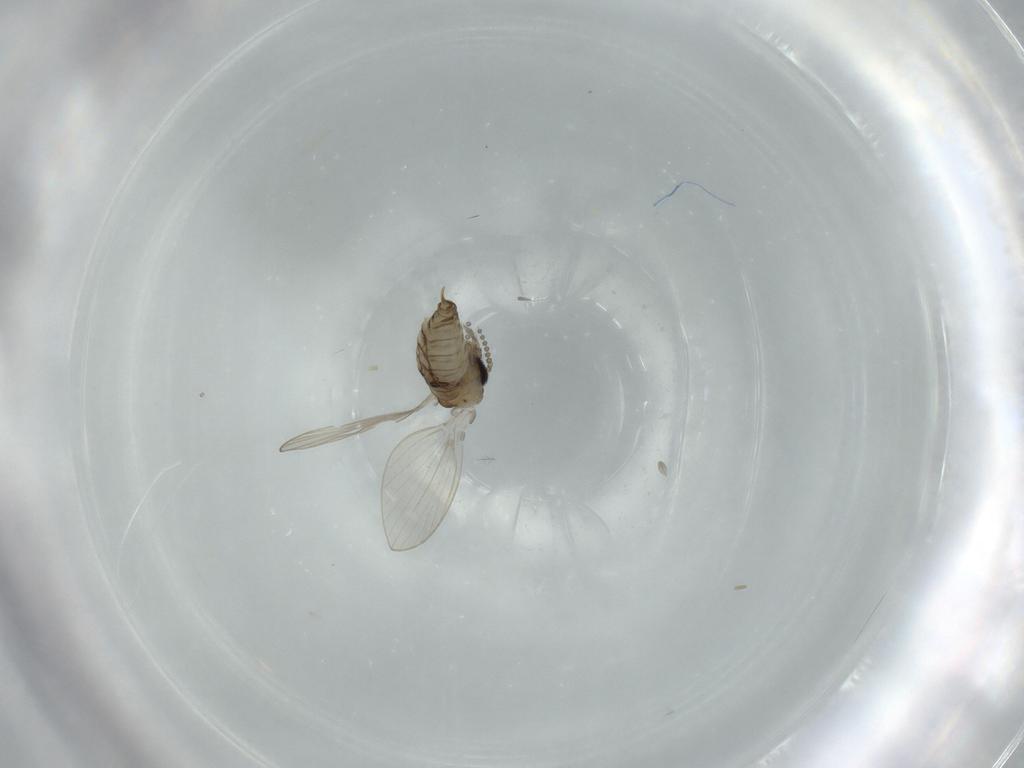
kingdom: Animalia
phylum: Arthropoda
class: Insecta
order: Diptera
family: Psychodidae
